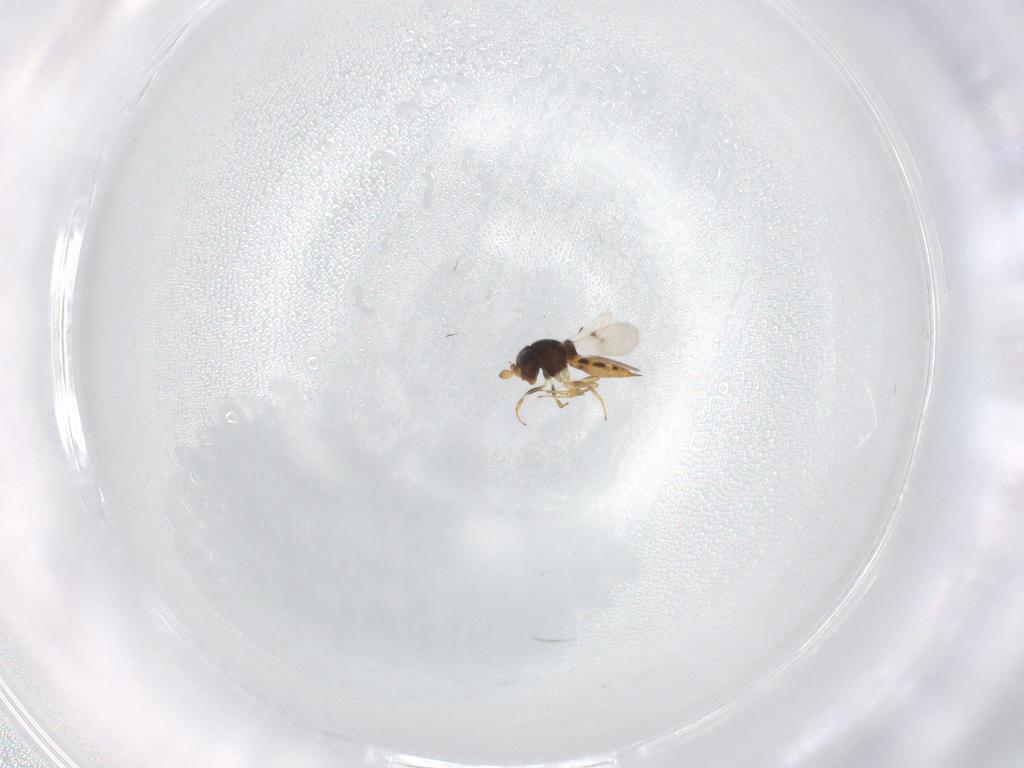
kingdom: Animalia
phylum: Arthropoda
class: Insecta
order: Hymenoptera
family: Scelionidae
